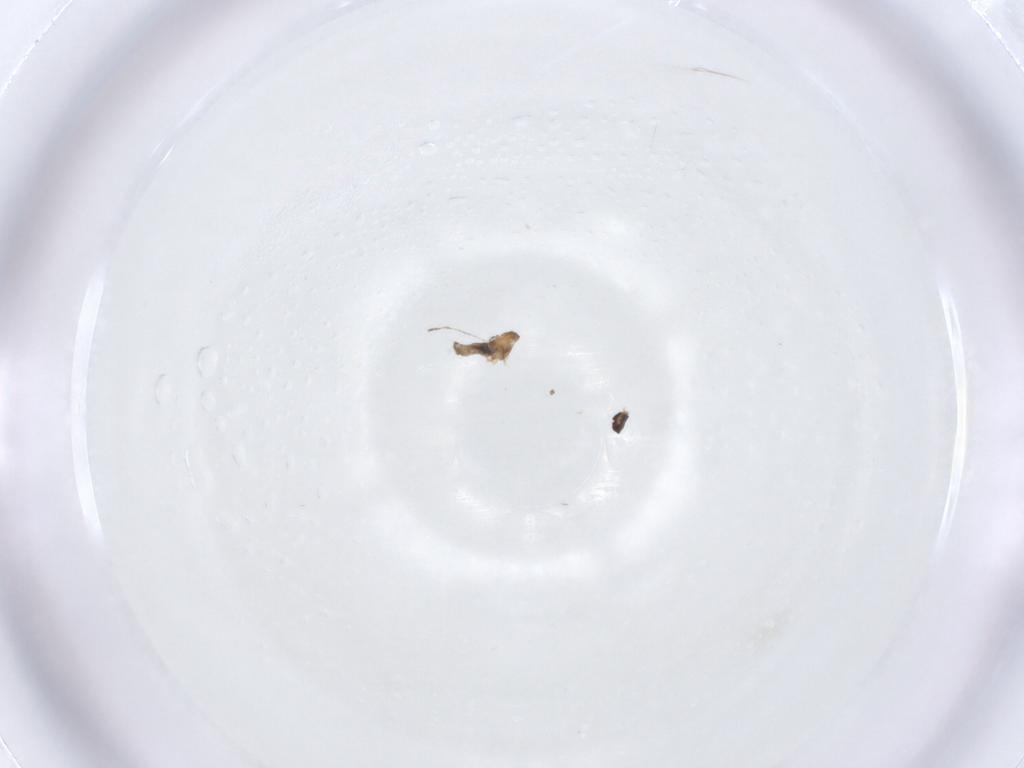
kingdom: Animalia
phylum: Arthropoda
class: Insecta
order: Diptera
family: Cecidomyiidae
